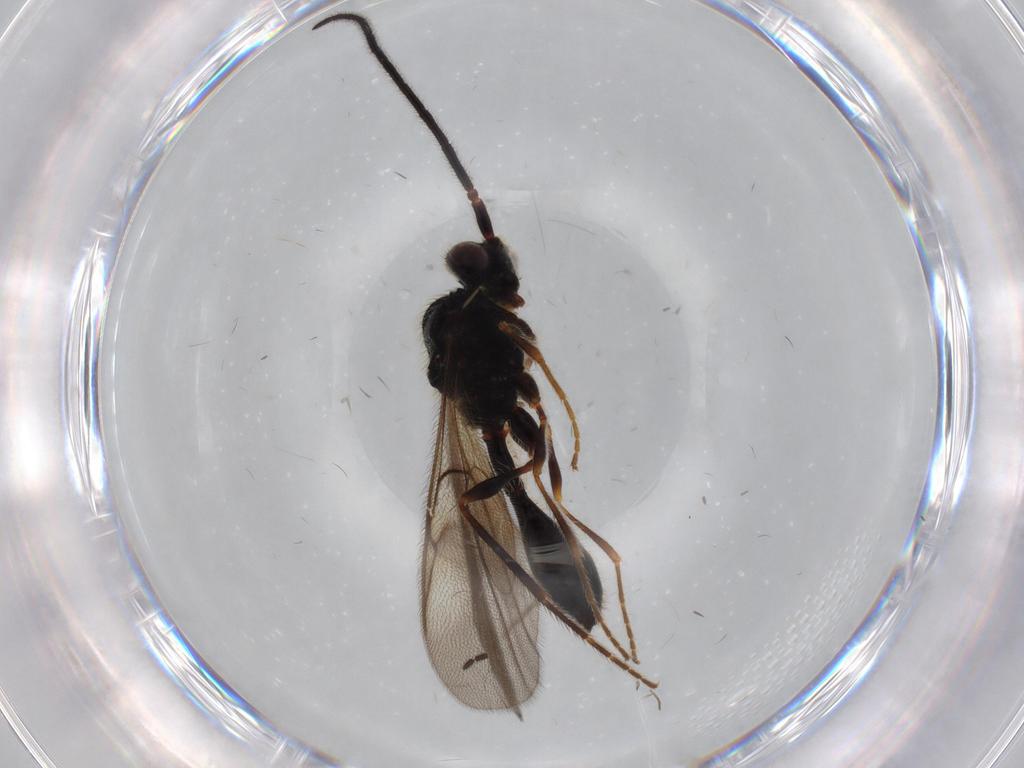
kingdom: Animalia
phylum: Arthropoda
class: Insecta
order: Hymenoptera
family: Diapriidae
